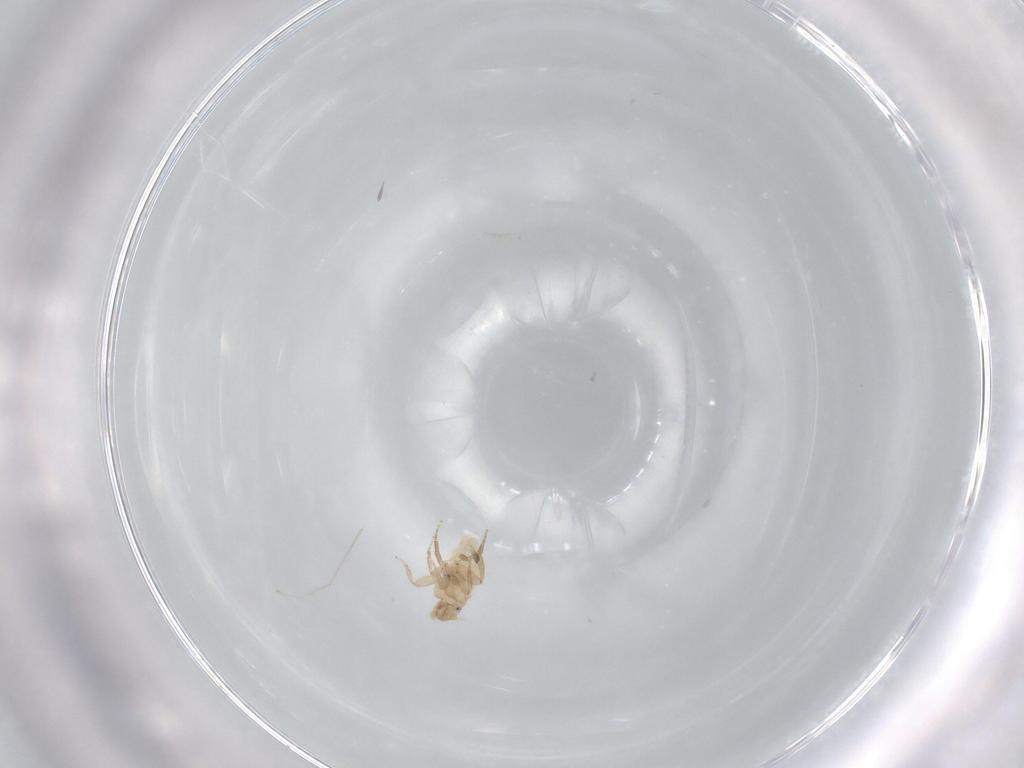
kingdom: Animalia
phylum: Arthropoda
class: Insecta
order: Diptera
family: Phoridae
